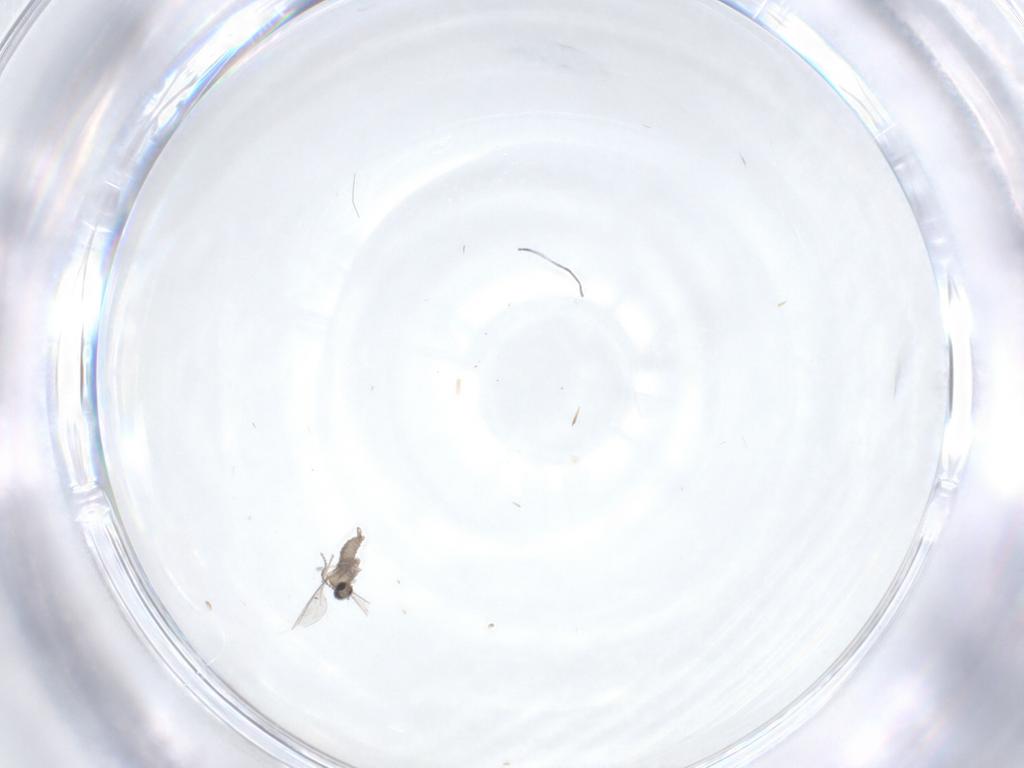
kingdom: Animalia
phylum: Arthropoda
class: Insecta
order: Diptera
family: Cecidomyiidae
